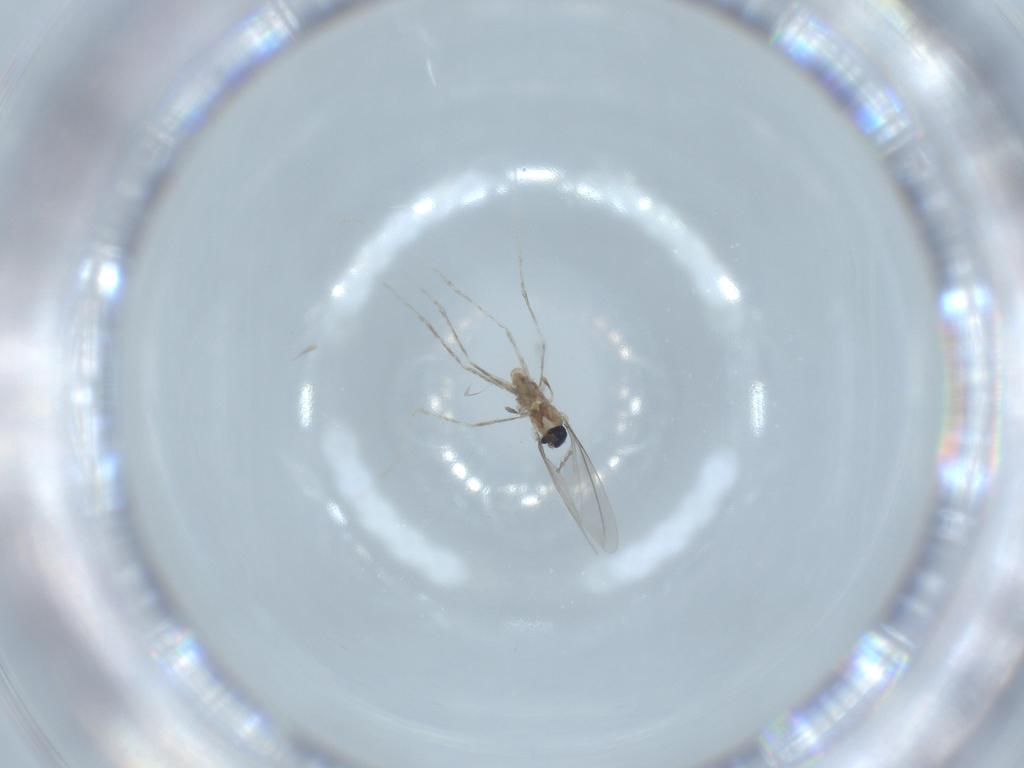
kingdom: Animalia
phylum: Arthropoda
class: Insecta
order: Diptera
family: Cecidomyiidae
